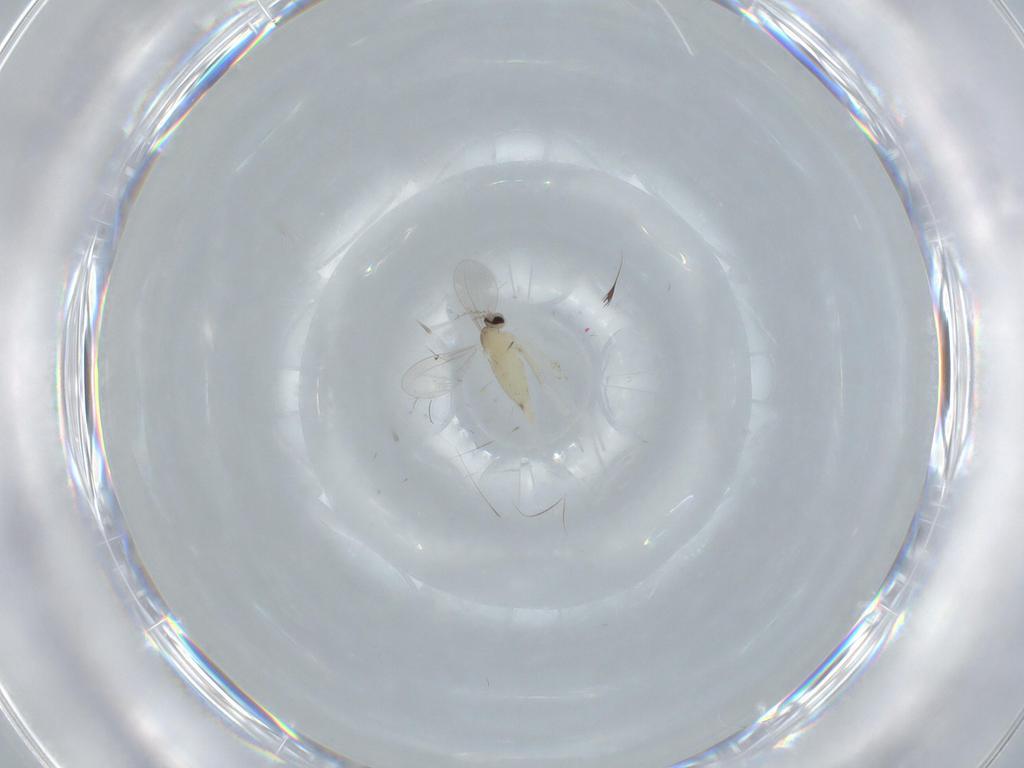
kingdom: Animalia
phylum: Arthropoda
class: Insecta
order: Diptera
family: Cecidomyiidae
